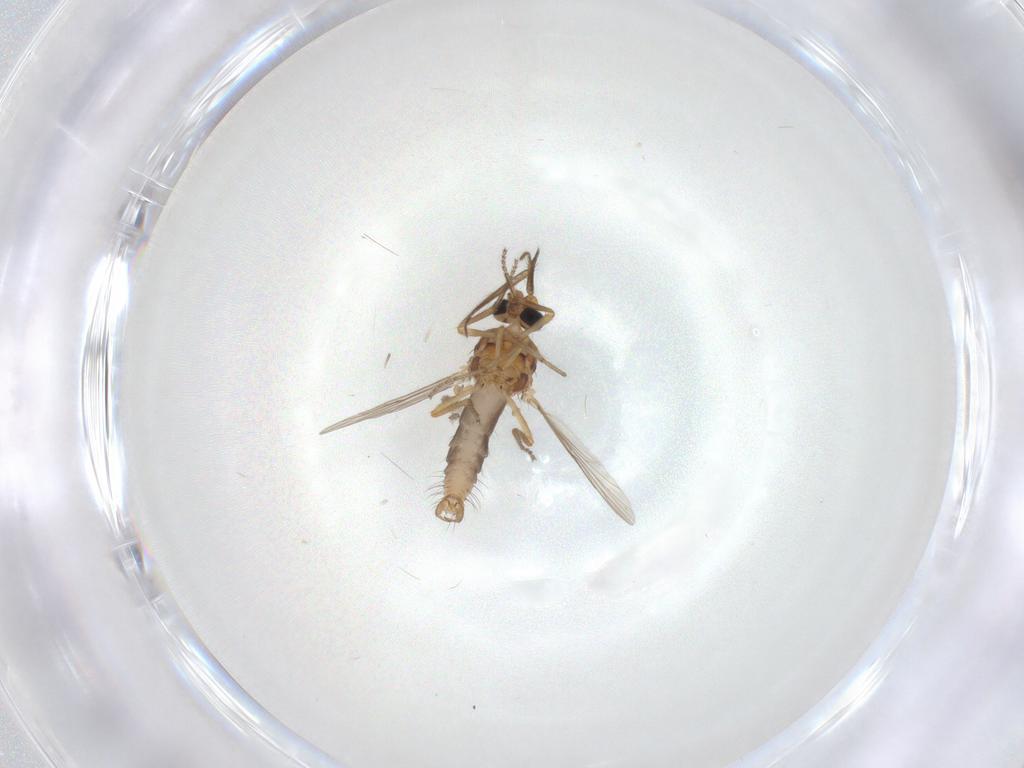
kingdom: Animalia
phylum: Arthropoda
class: Insecta
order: Diptera
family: Ceratopogonidae
